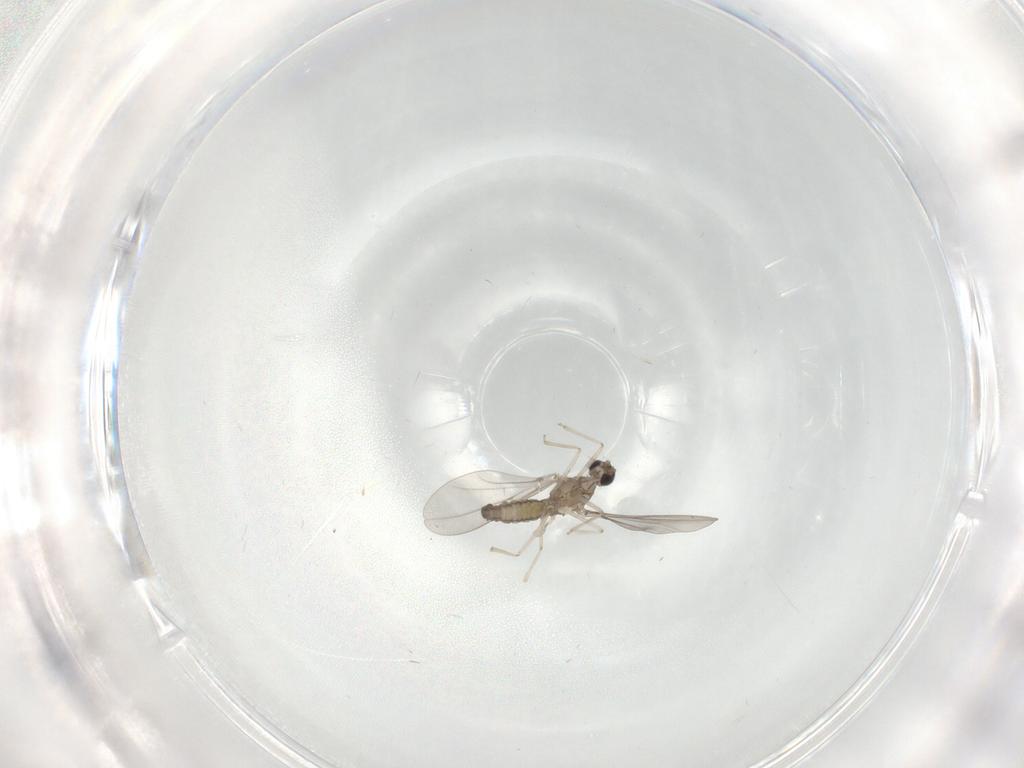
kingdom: Animalia
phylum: Arthropoda
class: Insecta
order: Diptera
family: Cecidomyiidae
